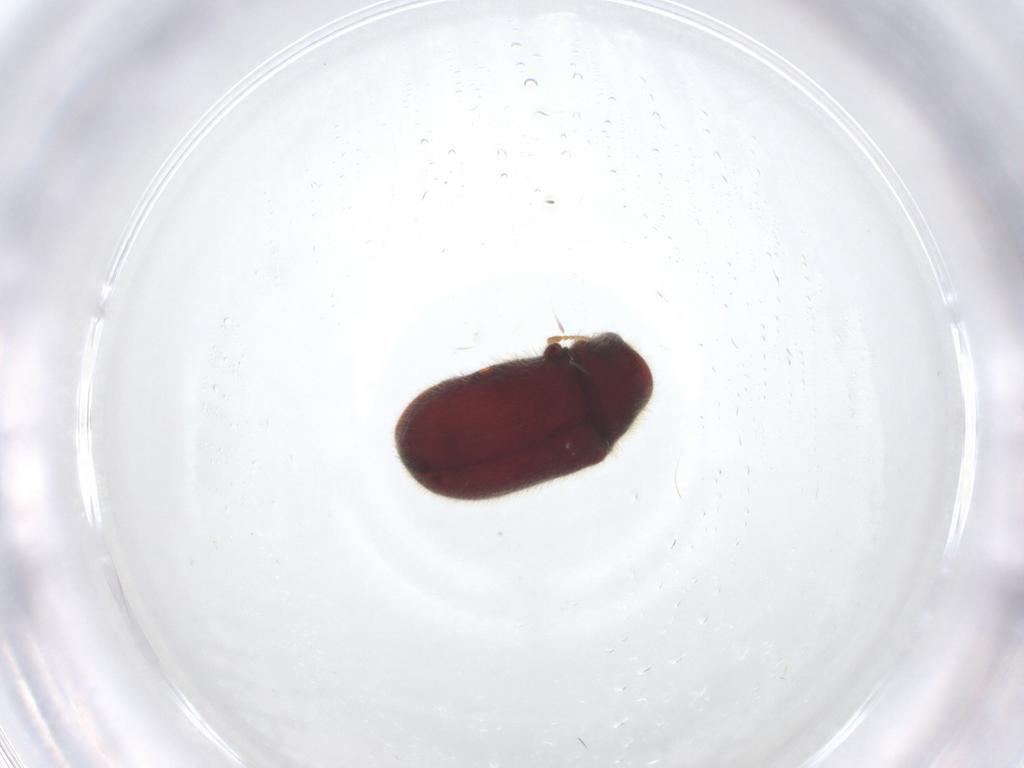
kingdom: Animalia
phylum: Arthropoda
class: Insecta
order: Coleoptera
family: Ptinidae
